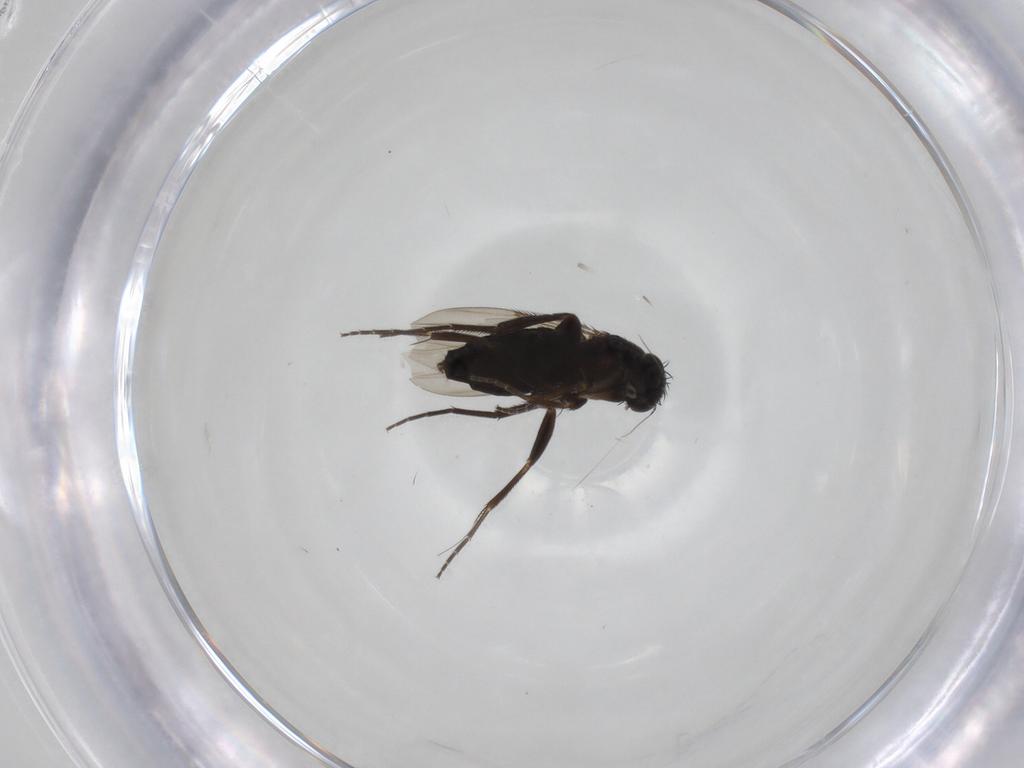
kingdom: Animalia
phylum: Arthropoda
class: Insecta
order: Diptera
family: Phoridae
